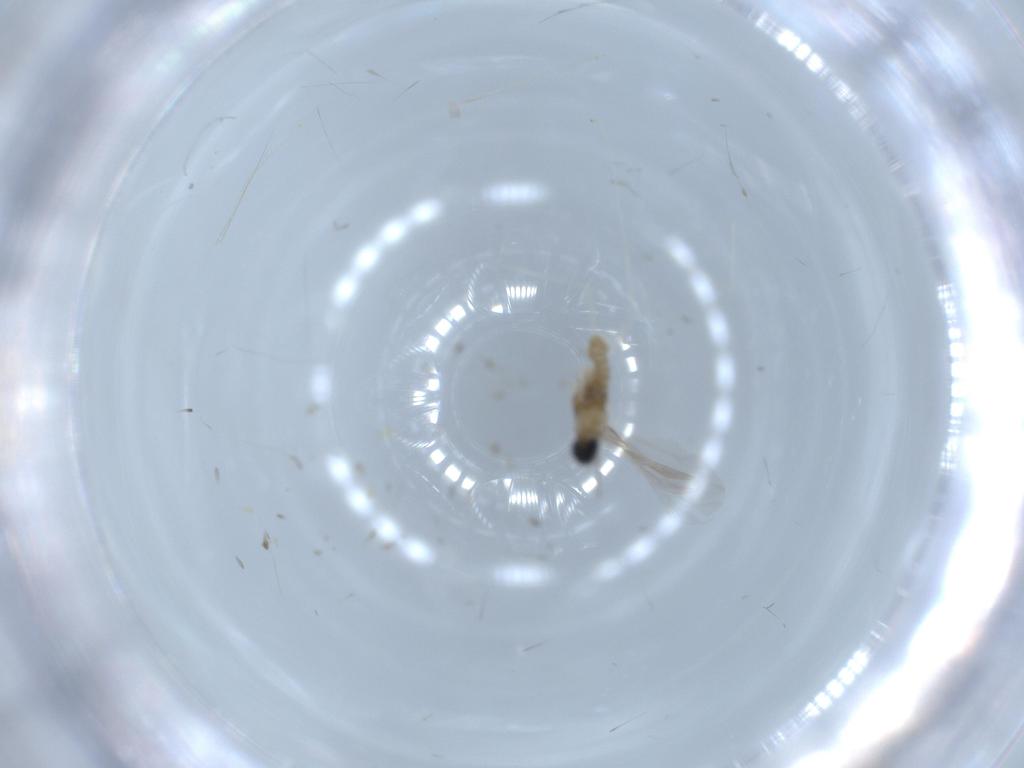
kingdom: Animalia
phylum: Arthropoda
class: Insecta
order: Diptera
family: Cecidomyiidae
